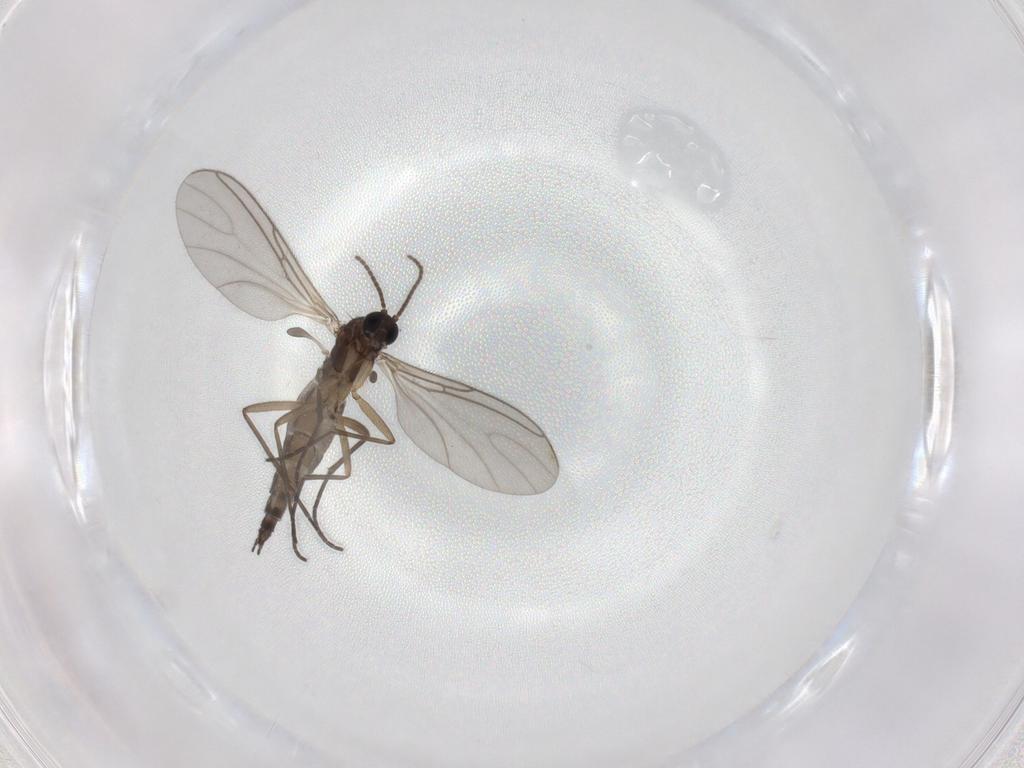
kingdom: Animalia
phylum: Arthropoda
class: Insecta
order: Diptera
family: Sciaridae
